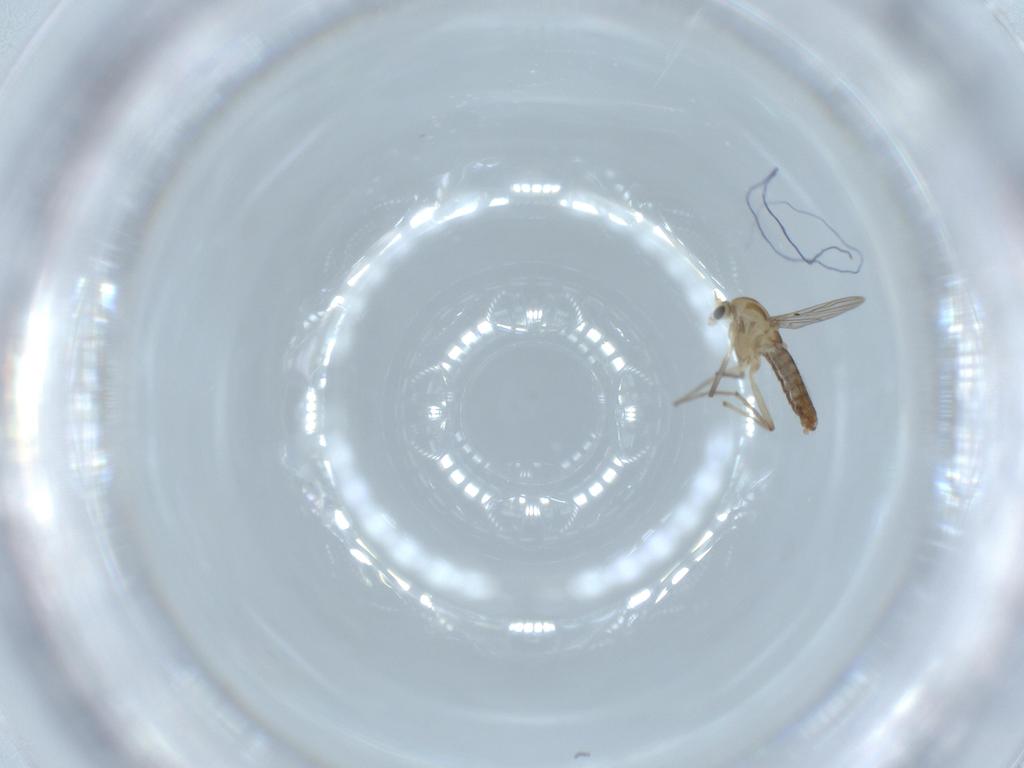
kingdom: Animalia
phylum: Arthropoda
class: Insecta
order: Diptera
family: Chironomidae
